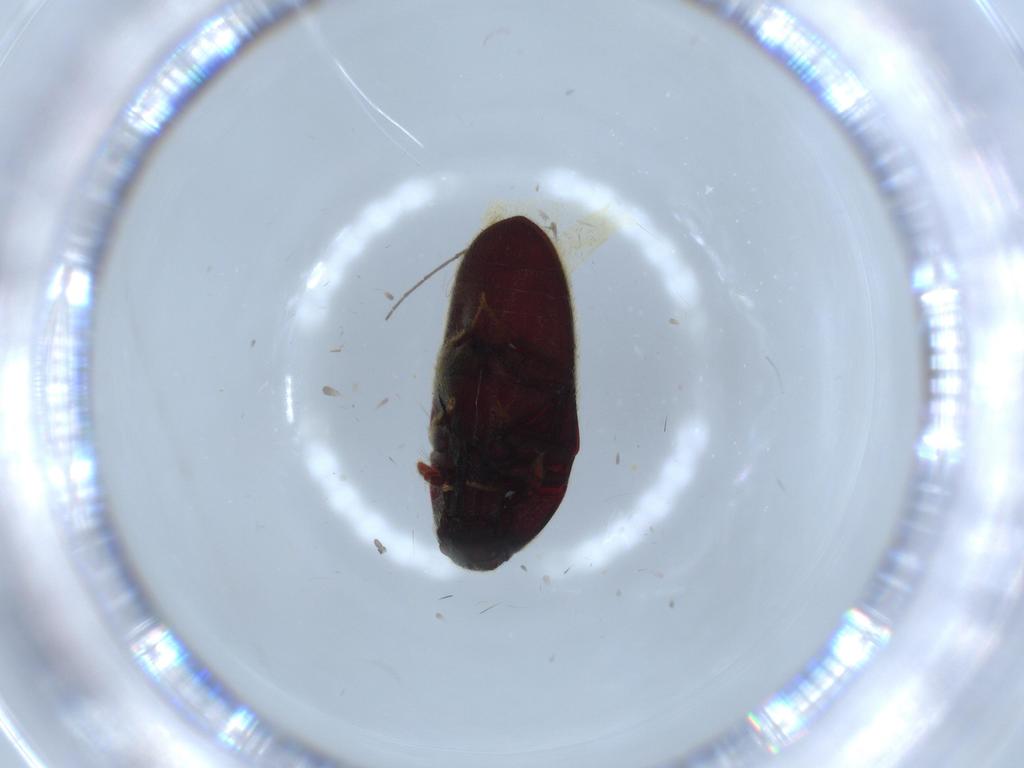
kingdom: Animalia
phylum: Arthropoda
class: Insecta
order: Coleoptera
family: Throscidae
